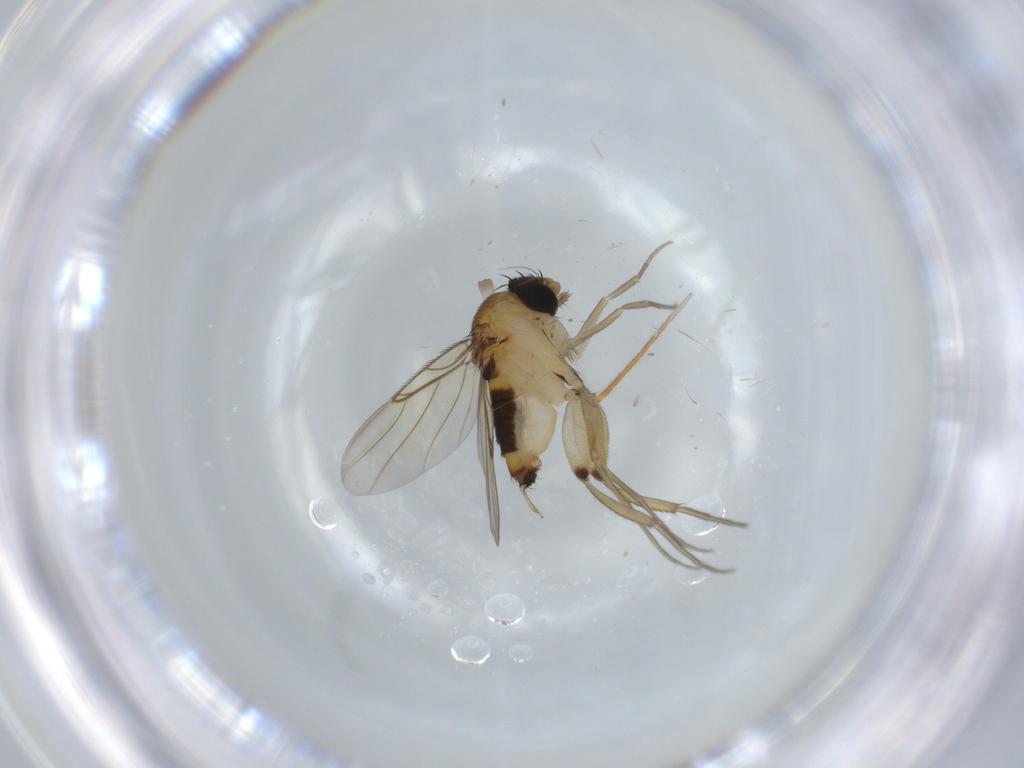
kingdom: Animalia
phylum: Arthropoda
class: Insecta
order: Diptera
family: Phoridae
